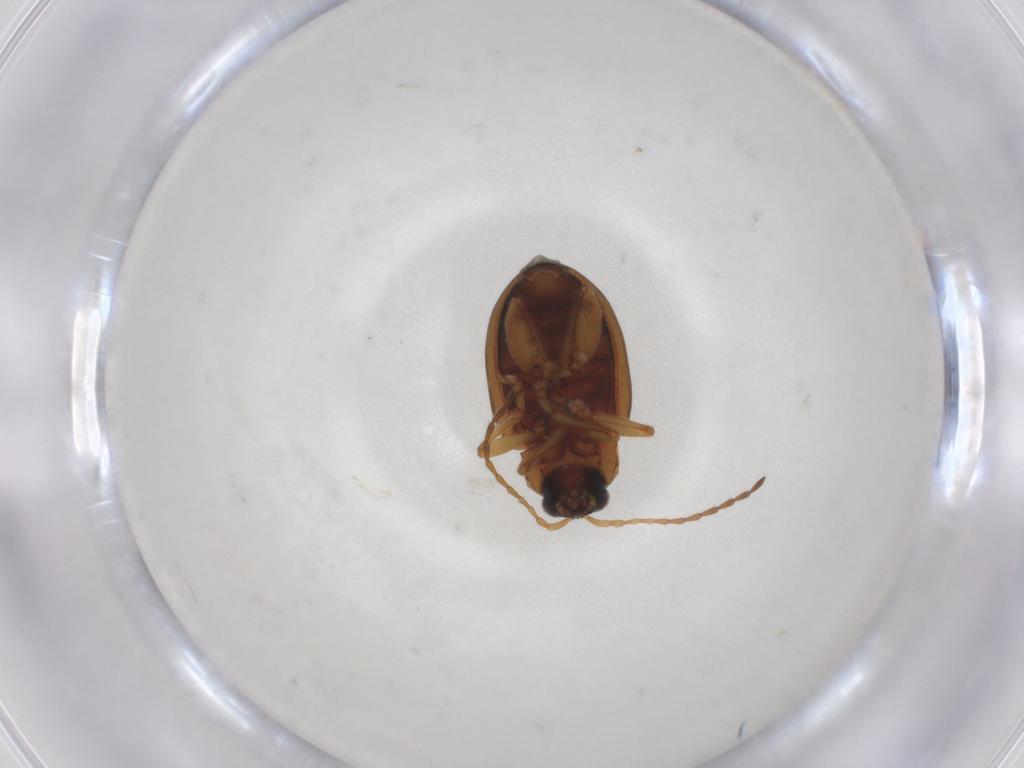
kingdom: Animalia
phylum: Arthropoda
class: Insecta
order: Coleoptera
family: Chrysomelidae
